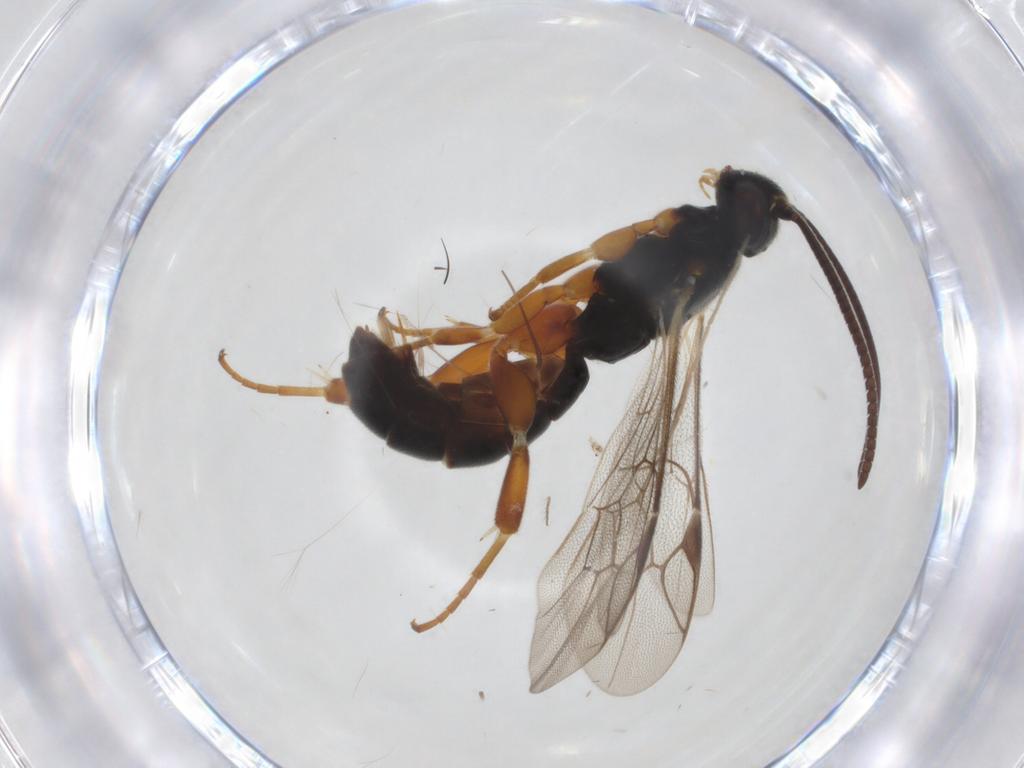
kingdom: Animalia
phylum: Arthropoda
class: Insecta
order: Hymenoptera
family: Ichneumonidae
